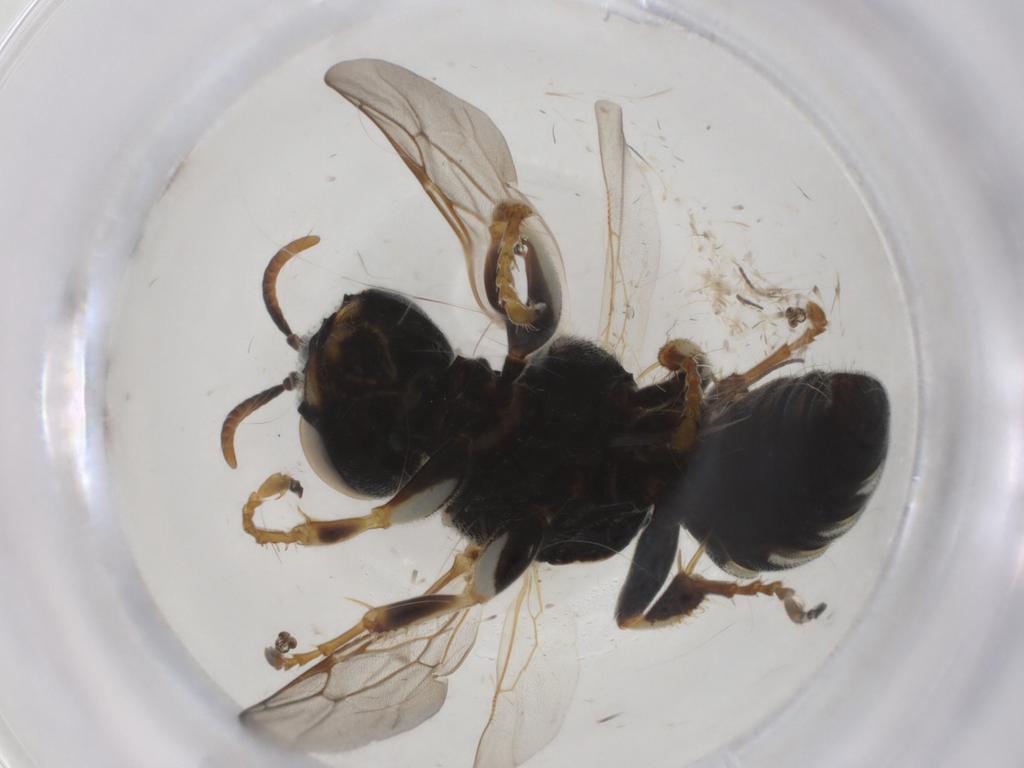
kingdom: Animalia
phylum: Arthropoda
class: Insecta
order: Hymenoptera
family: Crabronidae
